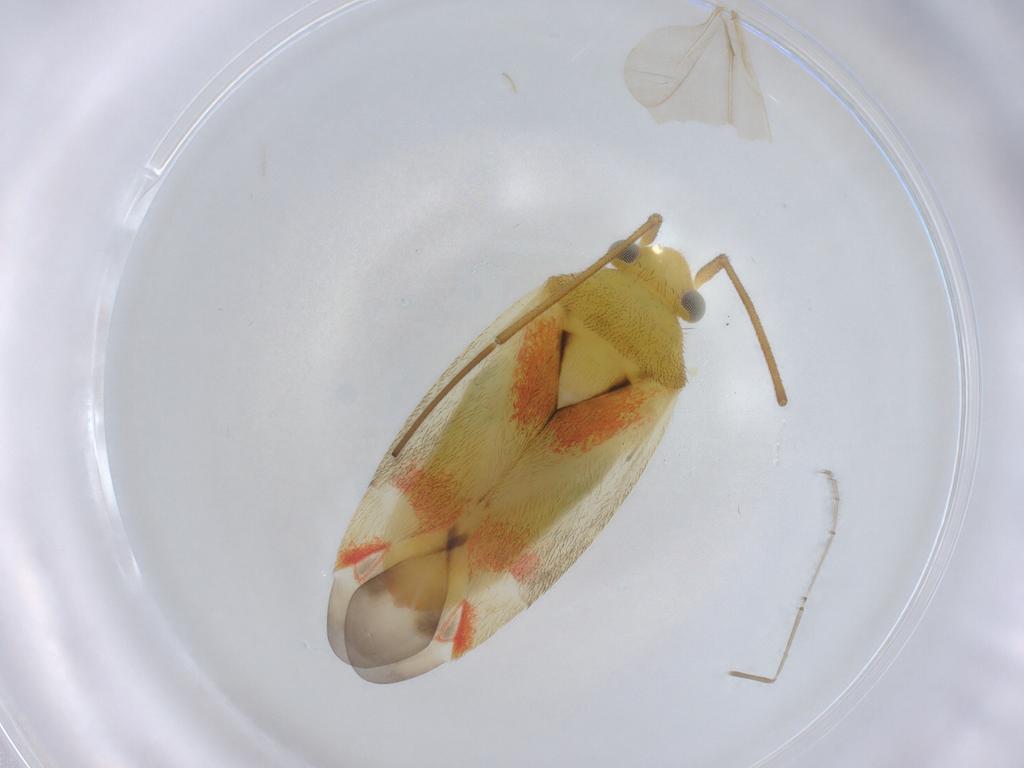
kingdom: Animalia
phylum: Arthropoda
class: Insecta
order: Hemiptera
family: Miridae
